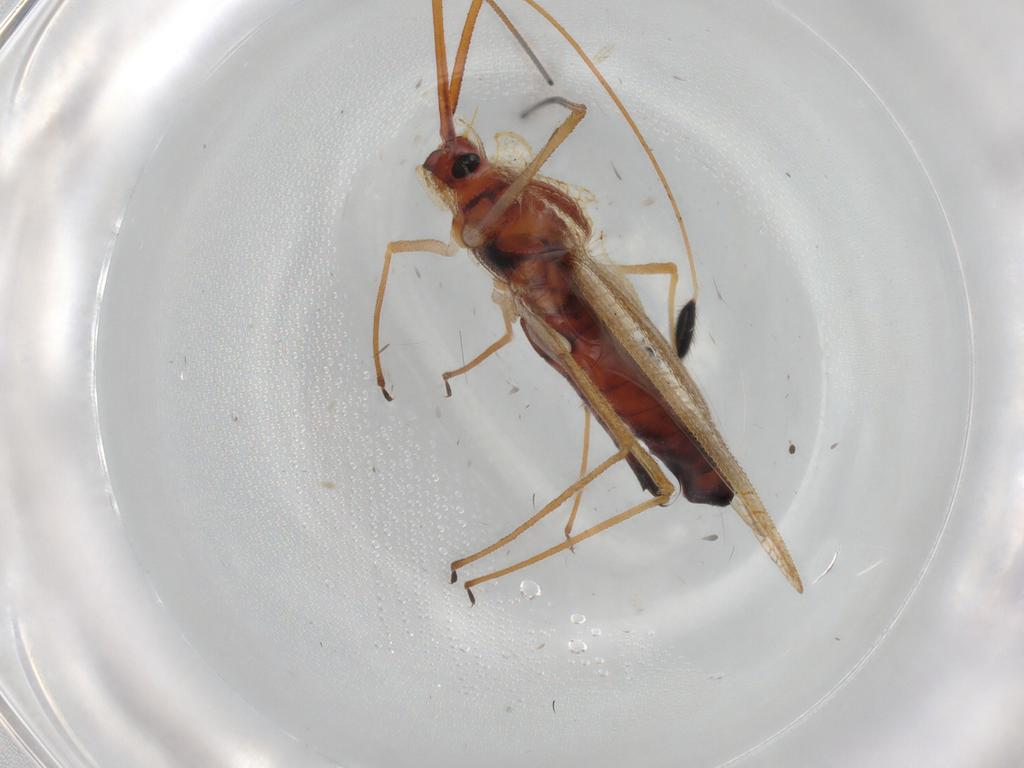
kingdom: Animalia
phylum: Arthropoda
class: Insecta
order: Hemiptera
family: Tingidae
